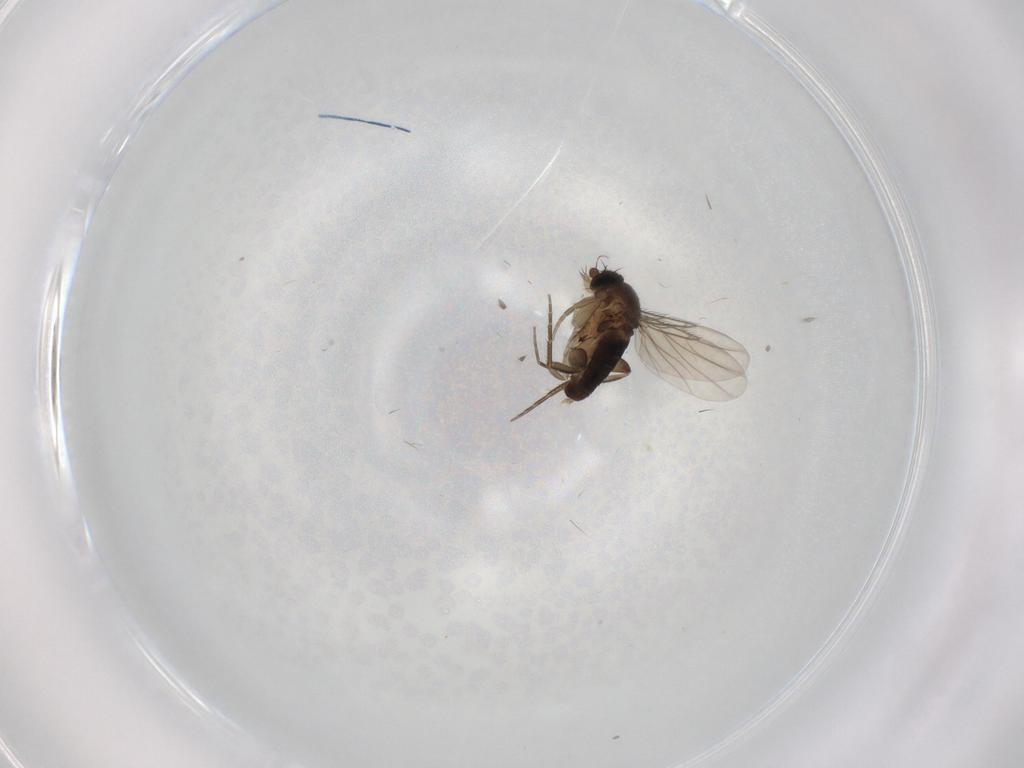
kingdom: Animalia
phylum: Arthropoda
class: Insecta
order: Diptera
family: Phoridae
